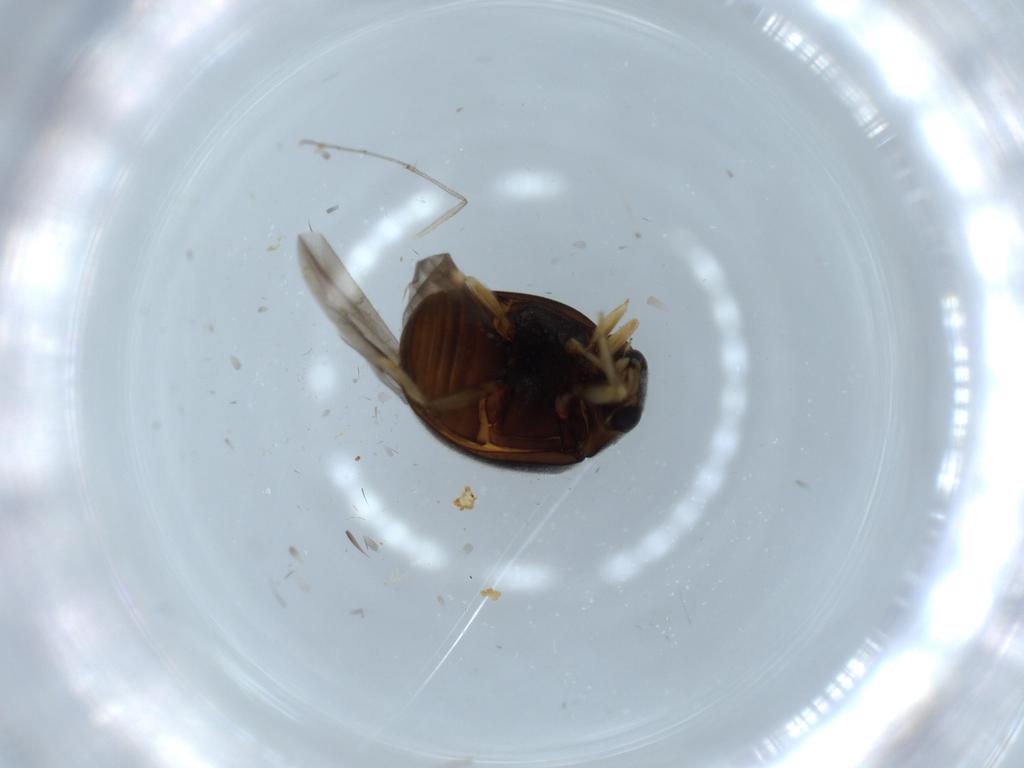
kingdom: Animalia
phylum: Arthropoda
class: Insecta
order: Coleoptera
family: Coccinellidae
